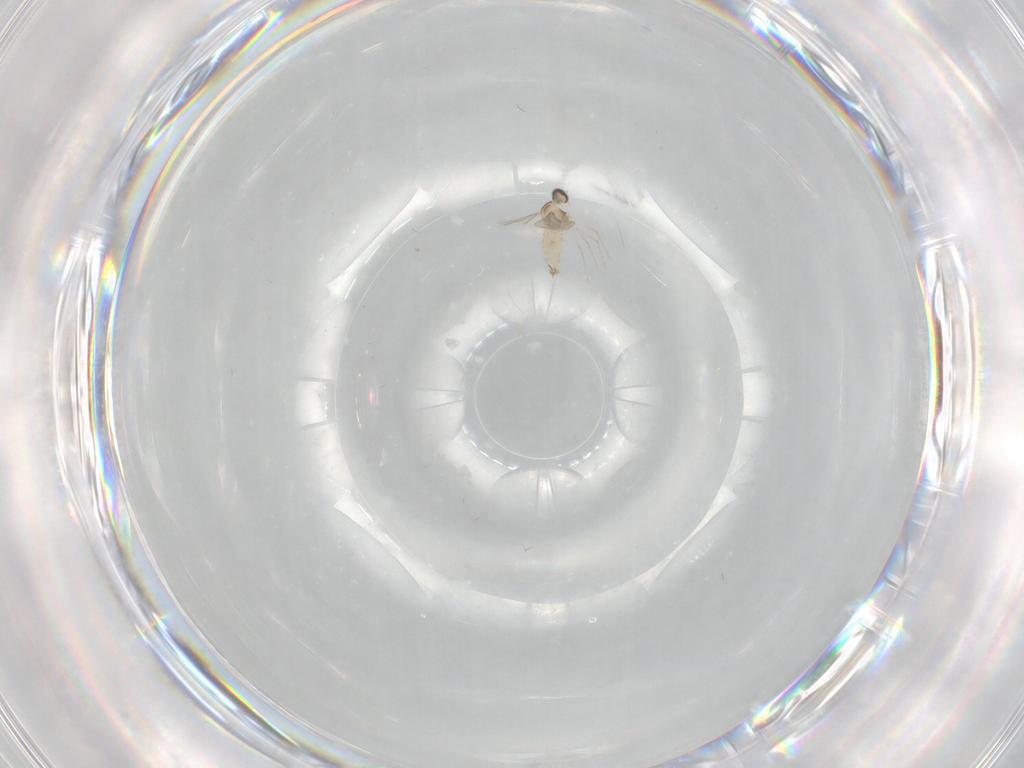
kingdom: Animalia
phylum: Arthropoda
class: Insecta
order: Diptera
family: Cecidomyiidae
